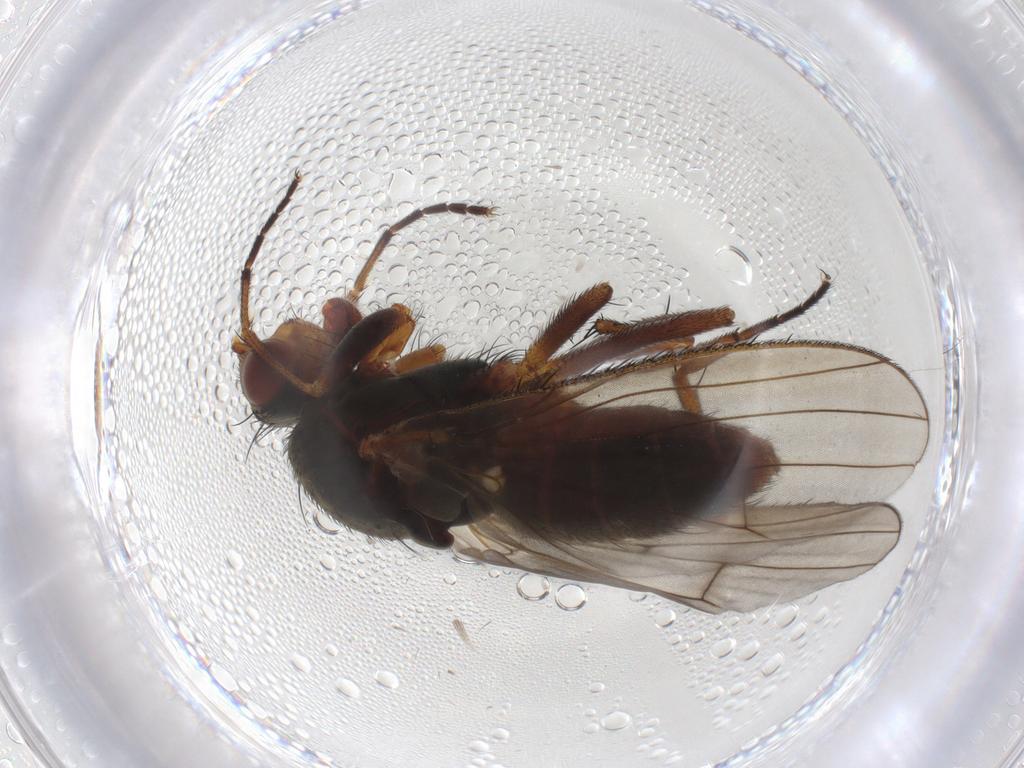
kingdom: Animalia
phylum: Arthropoda
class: Insecta
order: Diptera
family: Heleomyzidae
